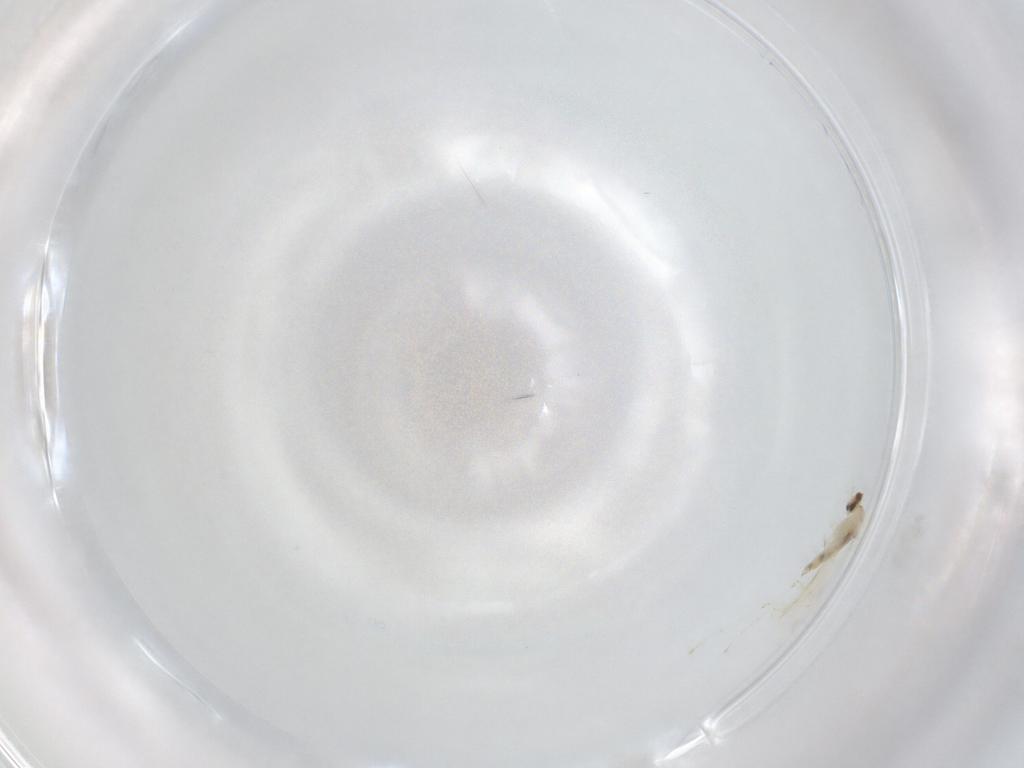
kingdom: Animalia
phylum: Arthropoda
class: Insecta
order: Diptera
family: Cecidomyiidae
